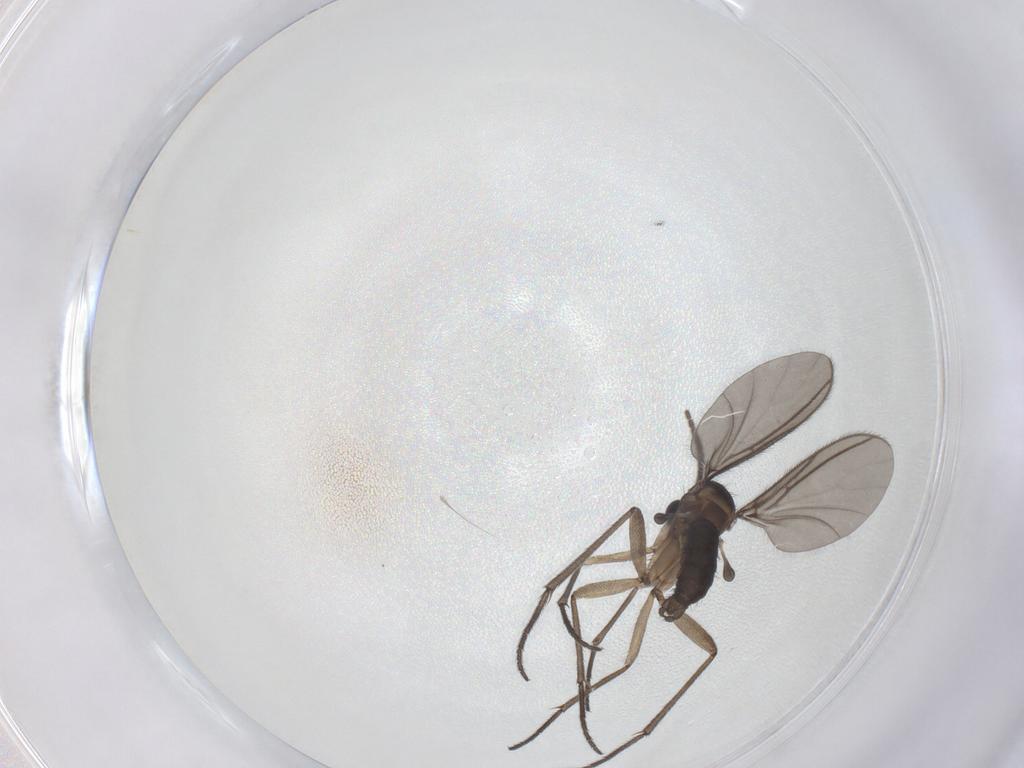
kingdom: Animalia
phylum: Arthropoda
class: Insecta
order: Diptera
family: Sciaridae
